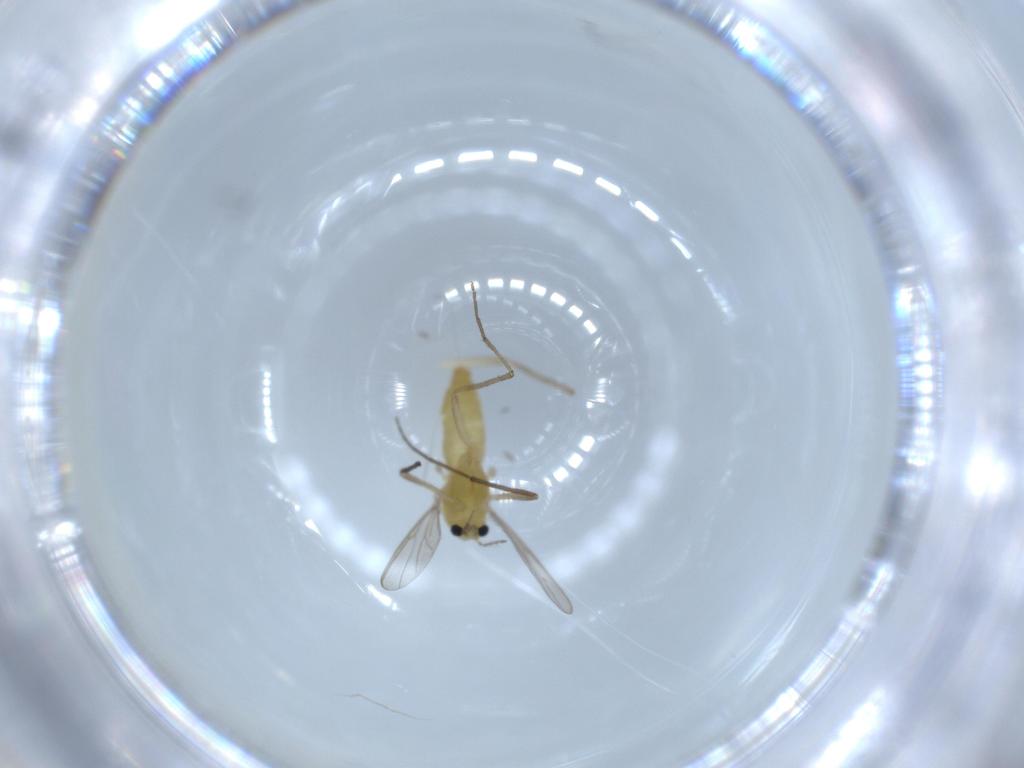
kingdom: Animalia
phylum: Arthropoda
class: Insecta
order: Diptera
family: Chironomidae
